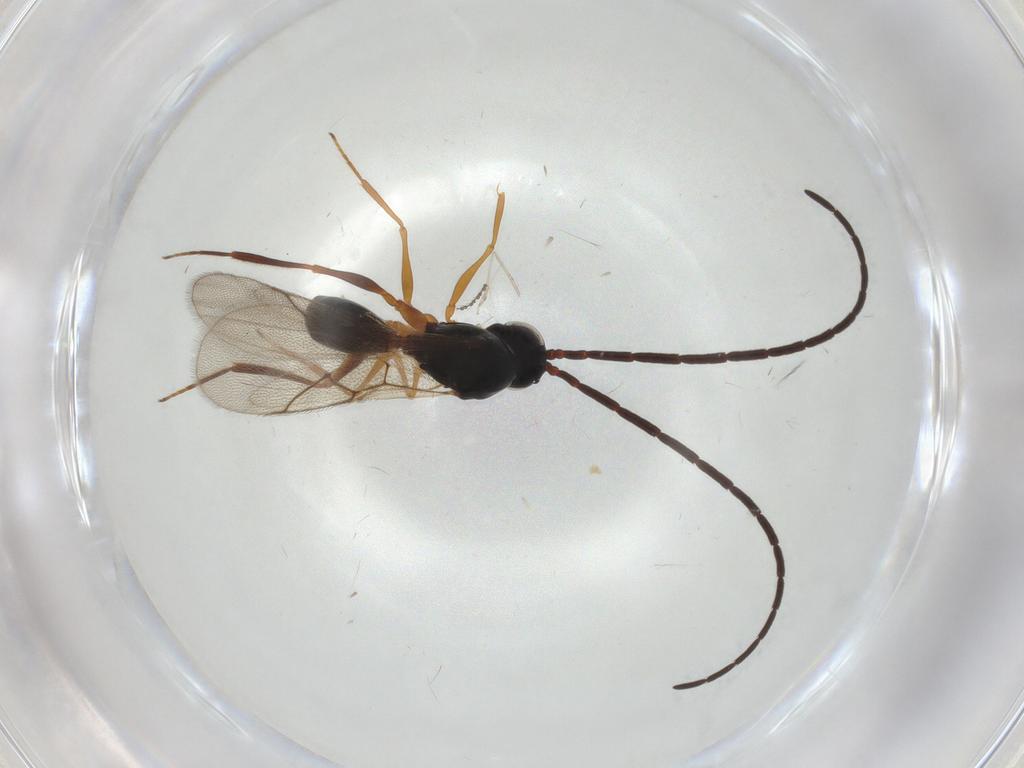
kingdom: Animalia
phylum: Arthropoda
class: Insecta
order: Hymenoptera
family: Figitidae
